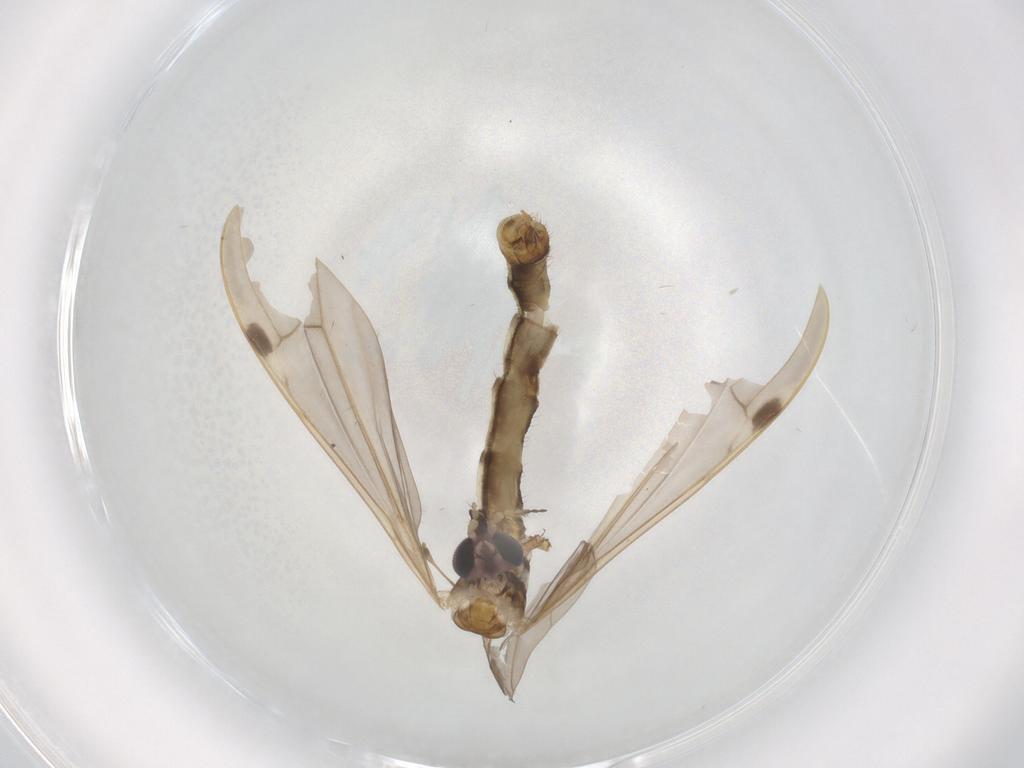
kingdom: Animalia
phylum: Arthropoda
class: Insecta
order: Diptera
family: Limoniidae
